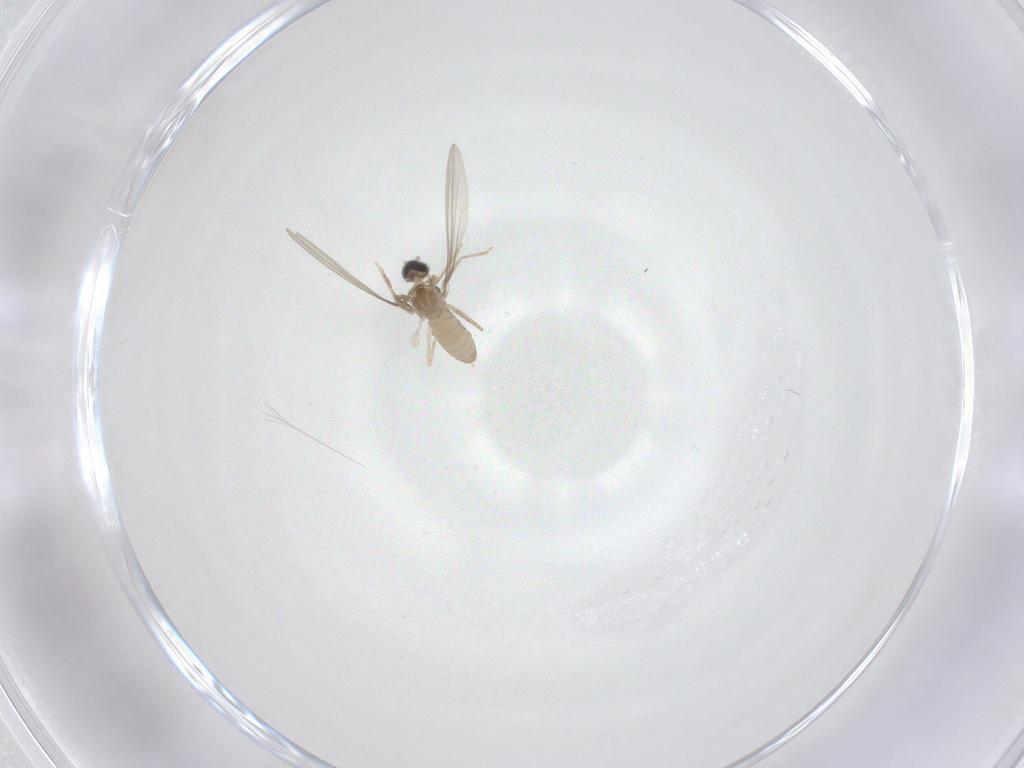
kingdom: Animalia
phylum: Arthropoda
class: Insecta
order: Diptera
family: Cecidomyiidae
